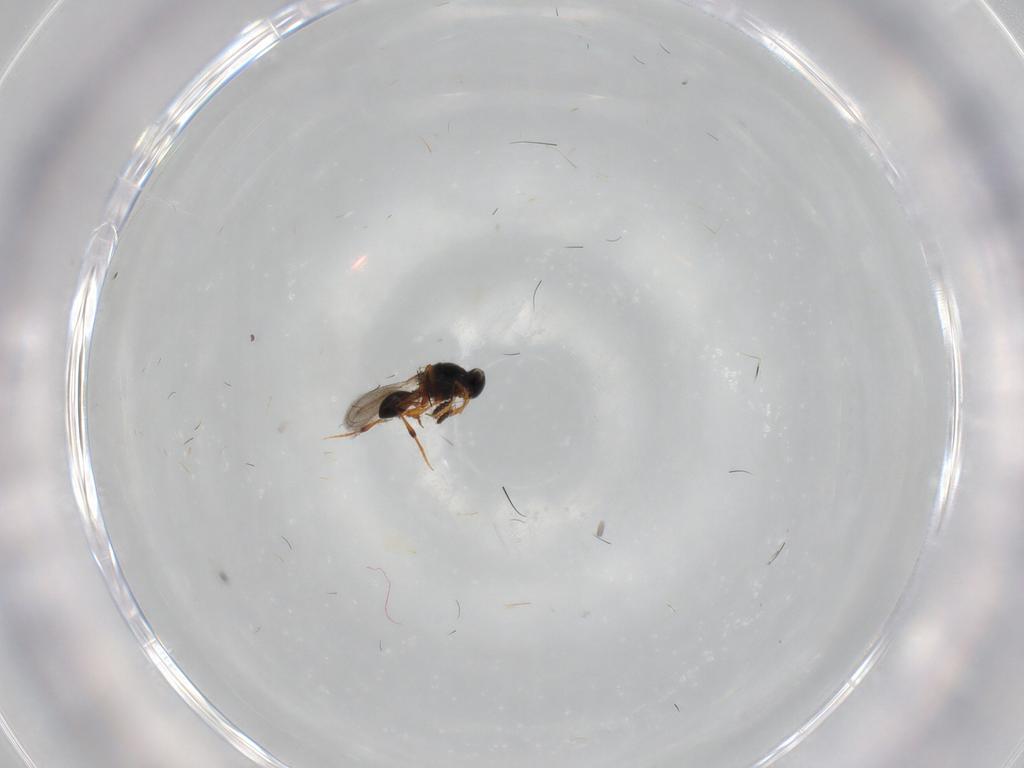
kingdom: Animalia
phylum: Arthropoda
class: Insecta
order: Hymenoptera
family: Platygastridae
